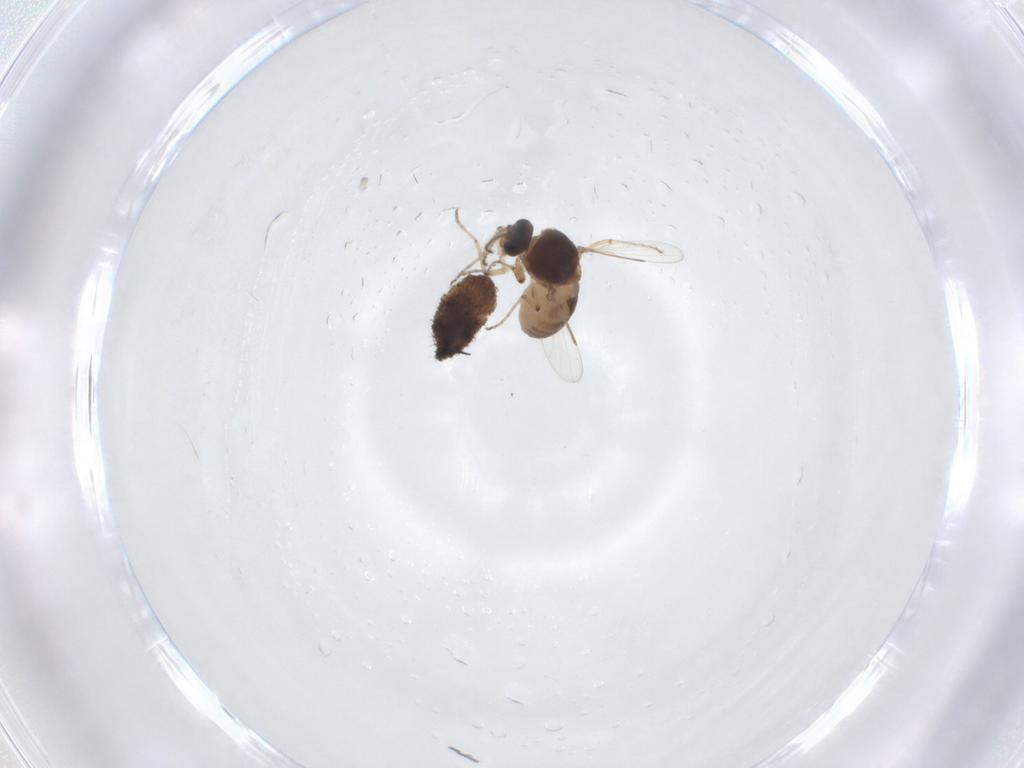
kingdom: Animalia
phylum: Arthropoda
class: Insecta
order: Diptera
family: Ceratopogonidae
